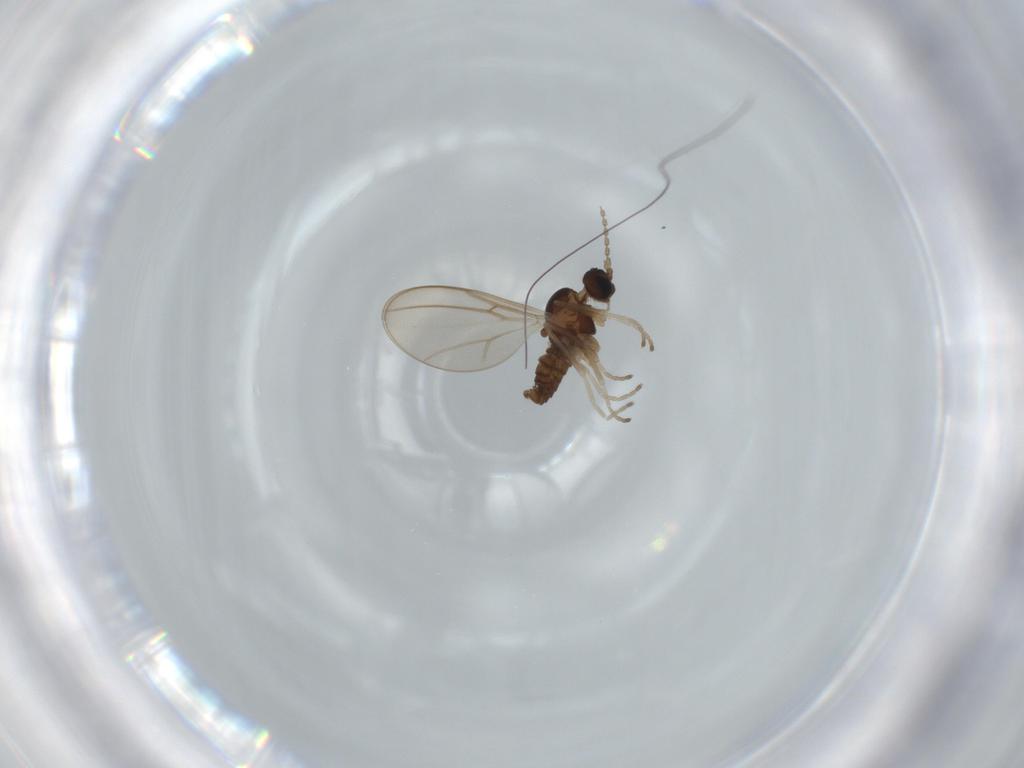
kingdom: Animalia
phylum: Arthropoda
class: Insecta
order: Diptera
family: Cecidomyiidae
